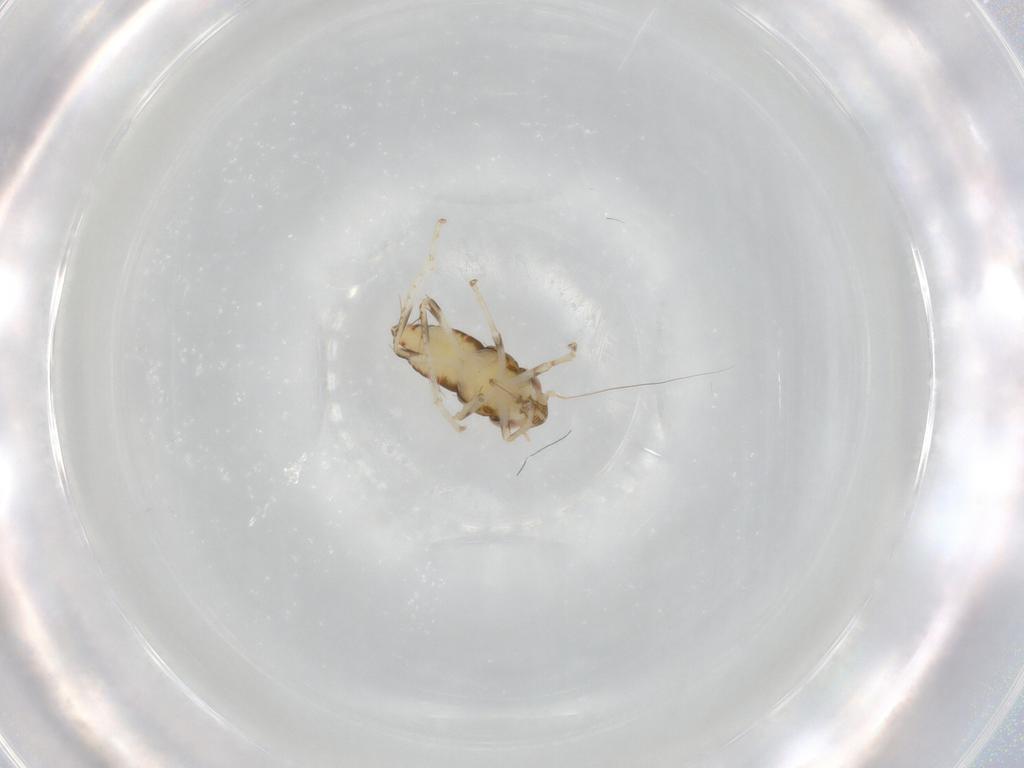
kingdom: Animalia
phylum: Arthropoda
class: Insecta
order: Hemiptera
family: Cicadellidae
